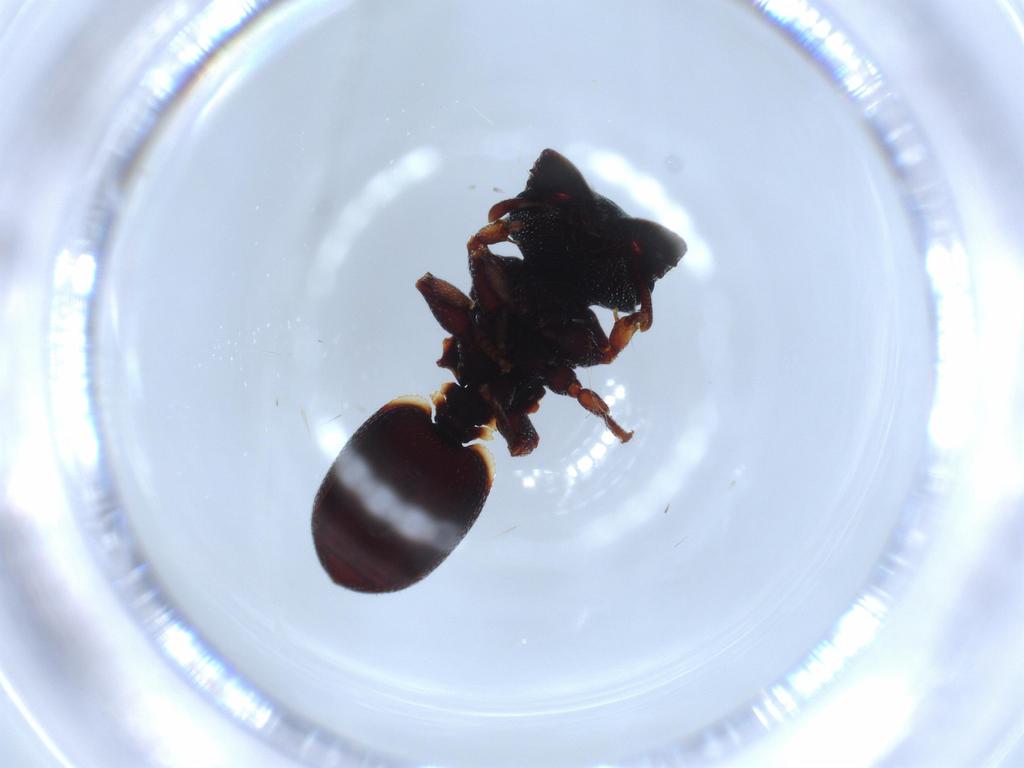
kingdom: Animalia
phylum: Arthropoda
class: Insecta
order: Hymenoptera
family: Formicidae
